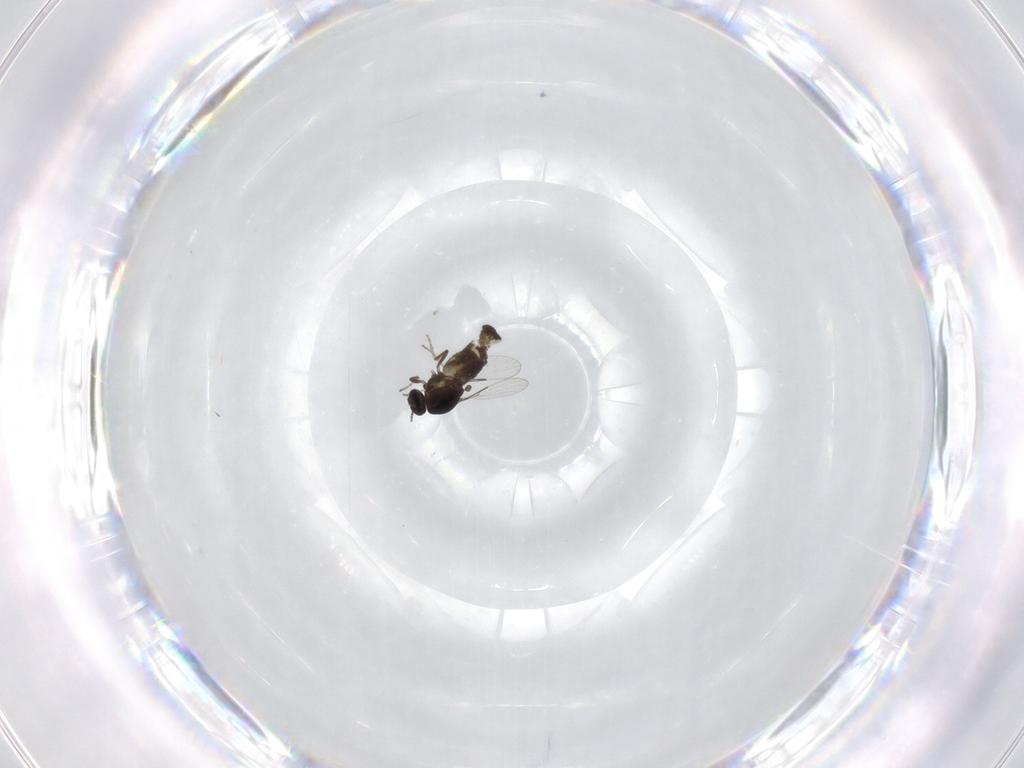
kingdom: Animalia
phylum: Arthropoda
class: Insecta
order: Diptera
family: Ceratopogonidae
